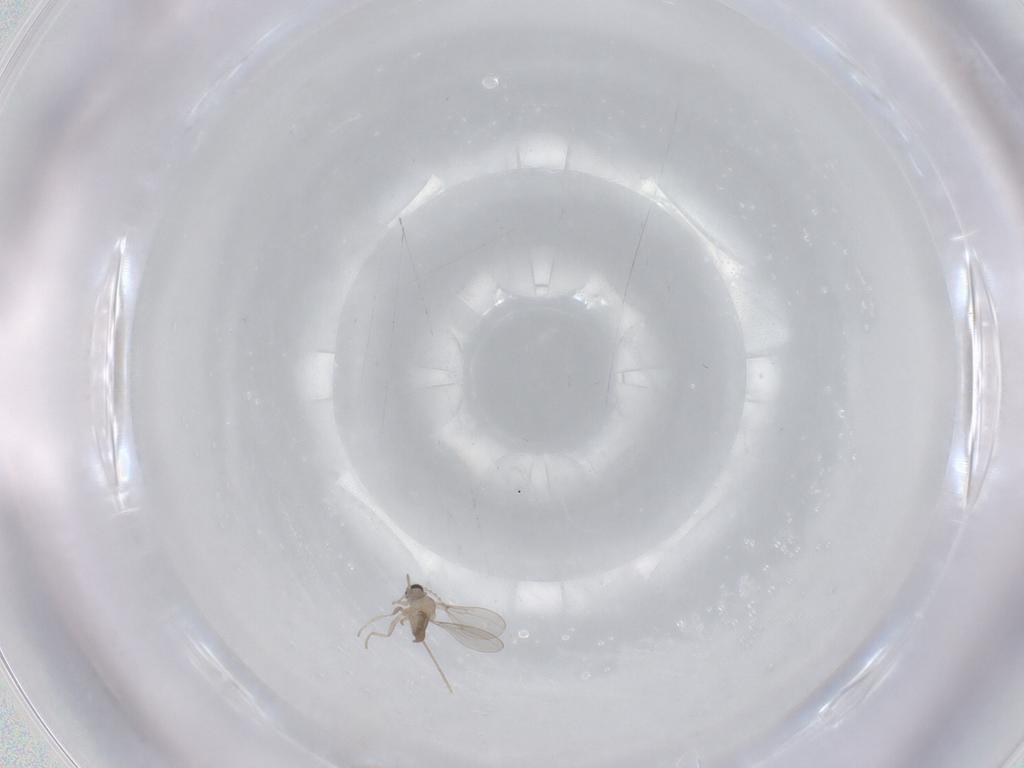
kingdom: Animalia
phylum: Arthropoda
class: Insecta
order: Diptera
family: Cecidomyiidae
